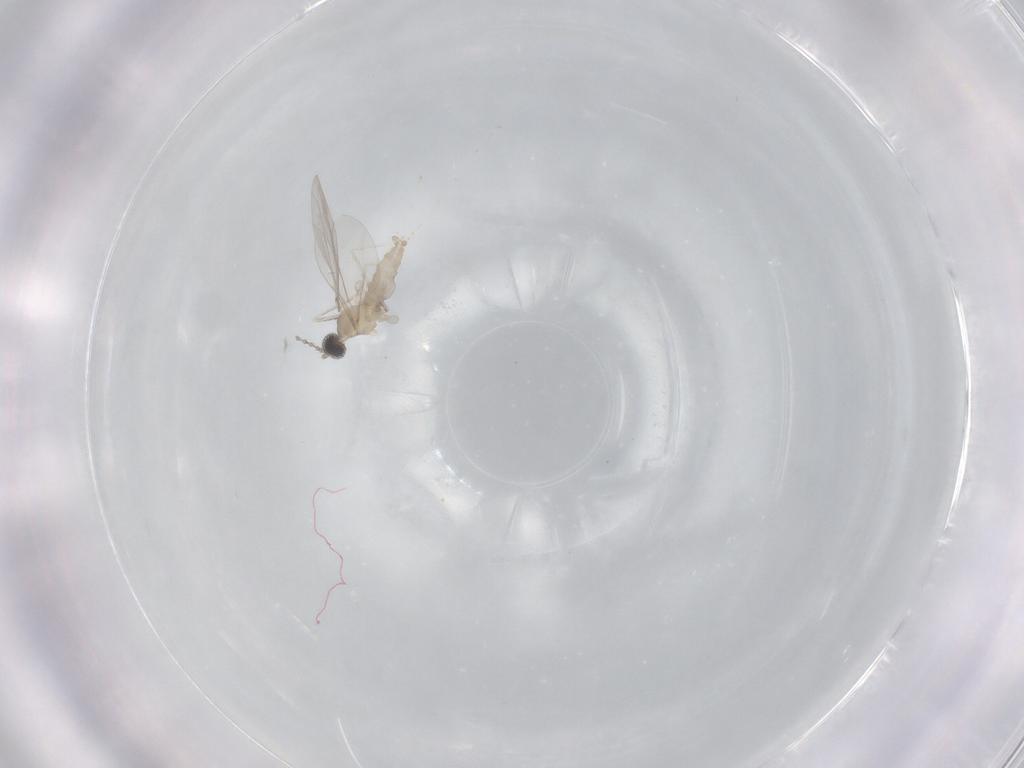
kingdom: Animalia
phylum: Arthropoda
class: Insecta
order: Diptera
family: Cecidomyiidae
